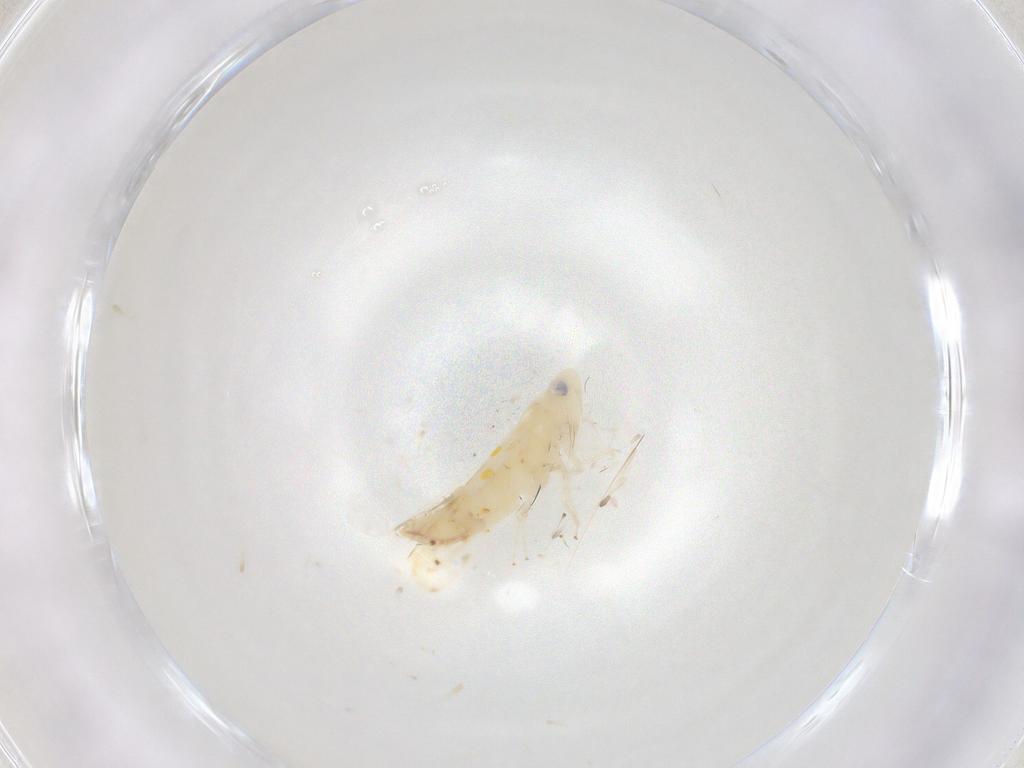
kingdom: Animalia
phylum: Arthropoda
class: Insecta
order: Hemiptera
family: Cicadellidae
